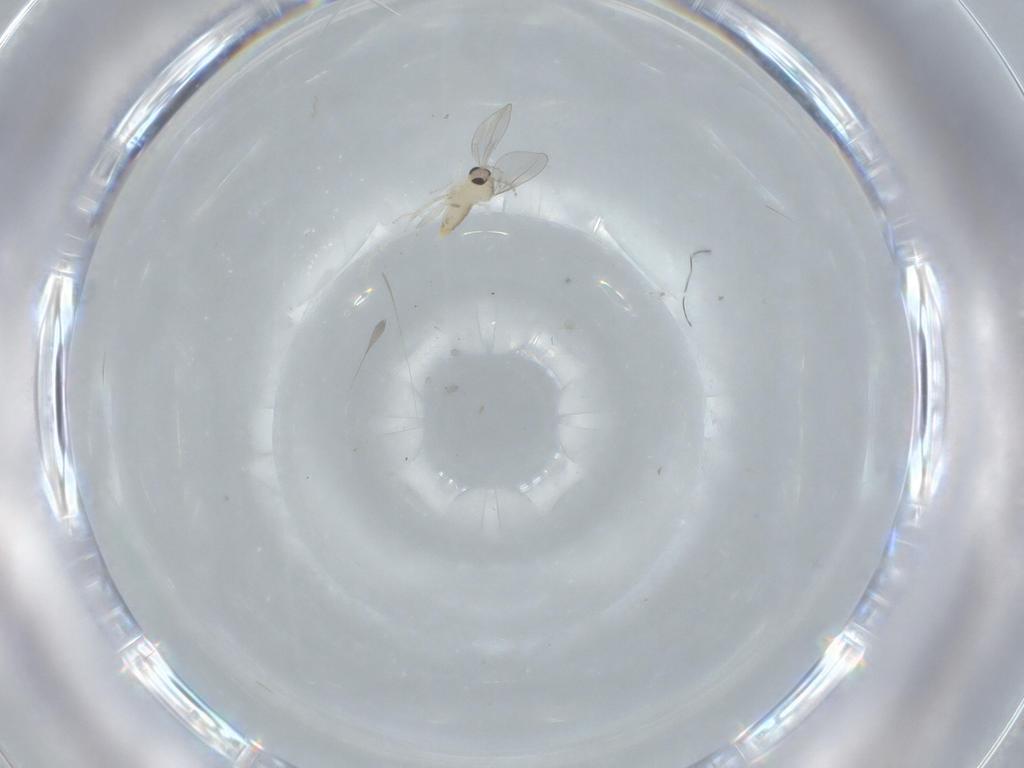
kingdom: Animalia
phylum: Arthropoda
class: Insecta
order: Diptera
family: Cecidomyiidae
